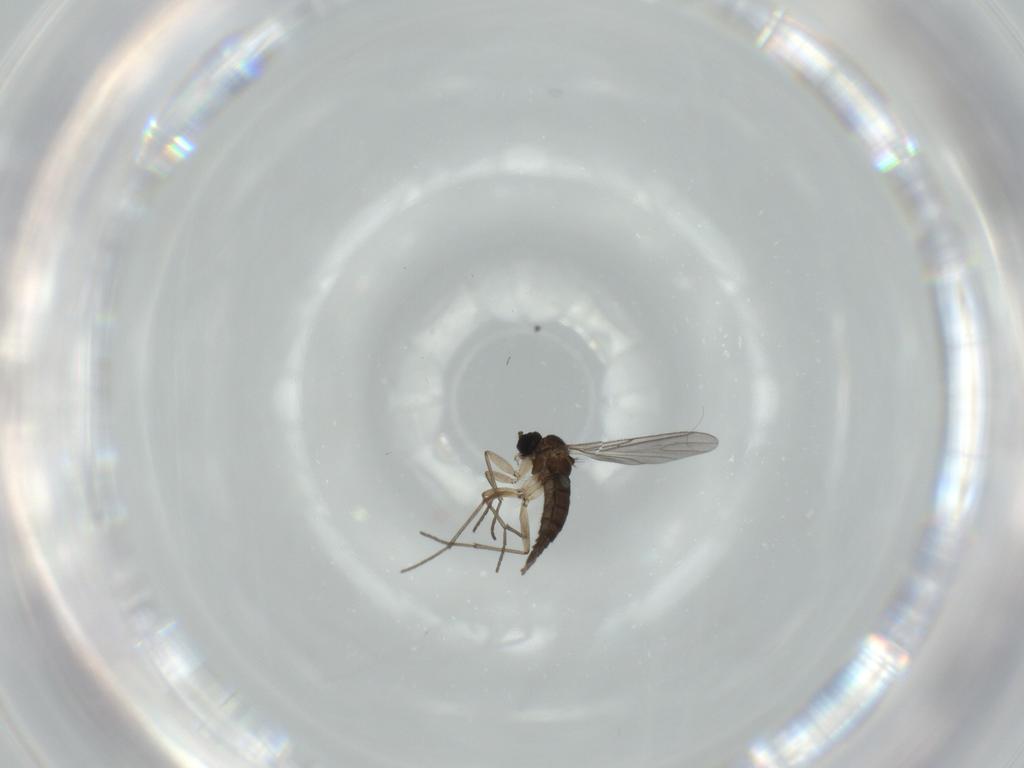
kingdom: Animalia
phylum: Arthropoda
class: Insecta
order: Diptera
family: Sciaridae
